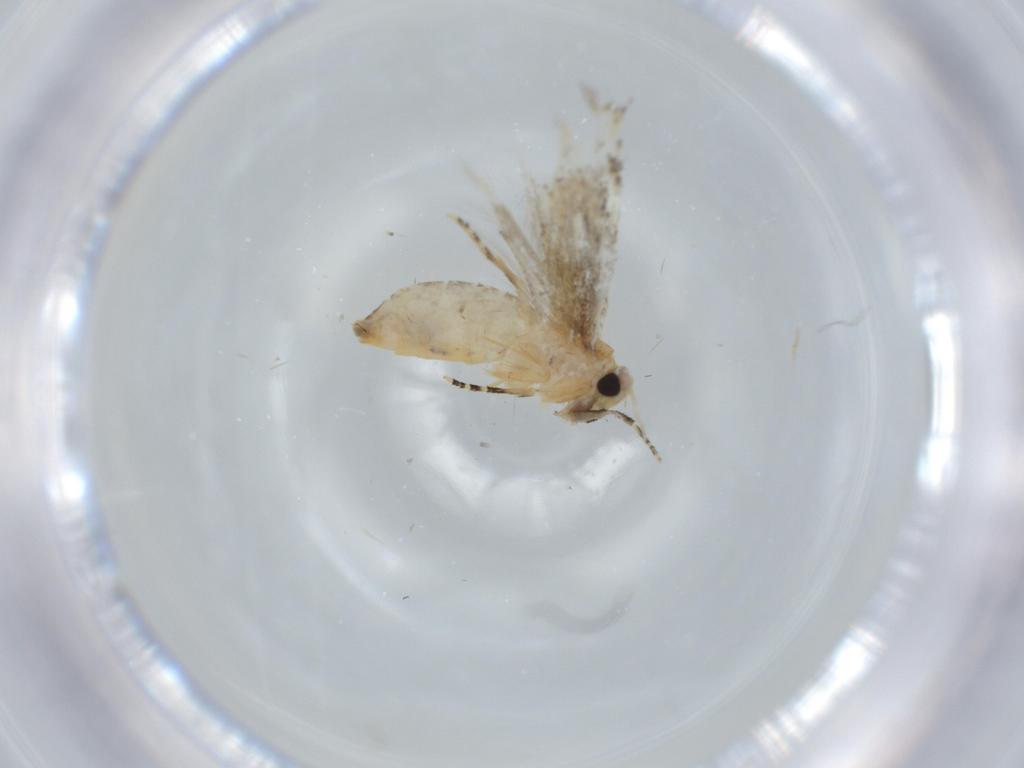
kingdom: Animalia
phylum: Arthropoda
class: Insecta
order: Lepidoptera
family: Bucculatricidae
